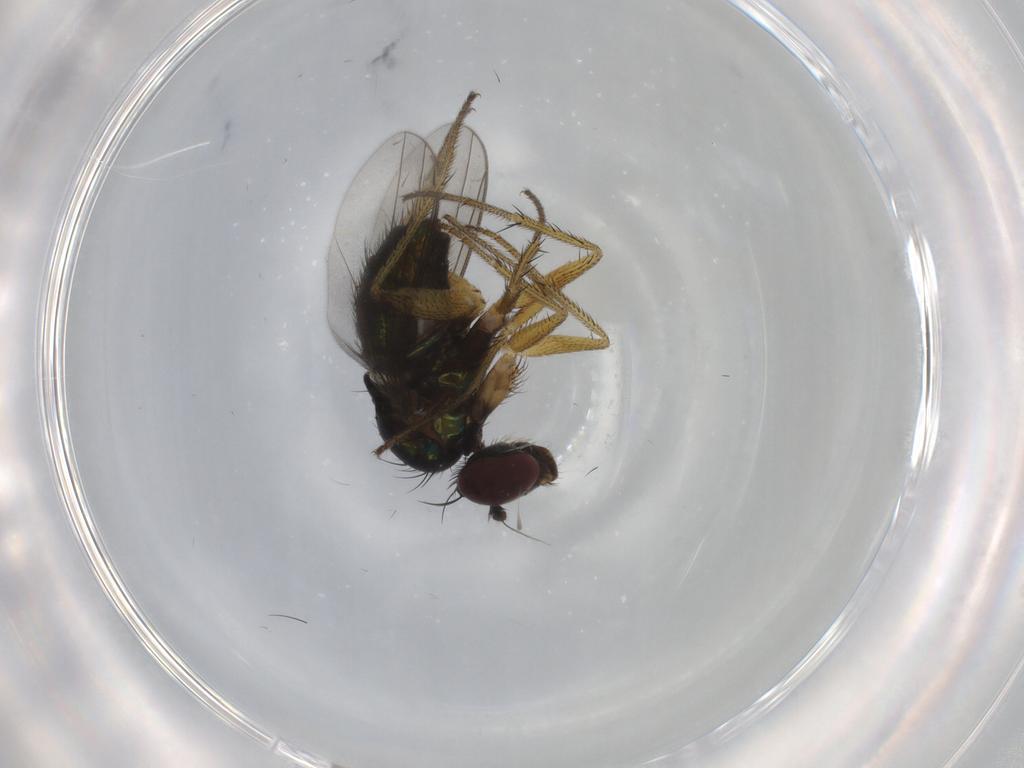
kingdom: Animalia
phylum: Arthropoda
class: Insecta
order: Diptera
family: Dolichopodidae
